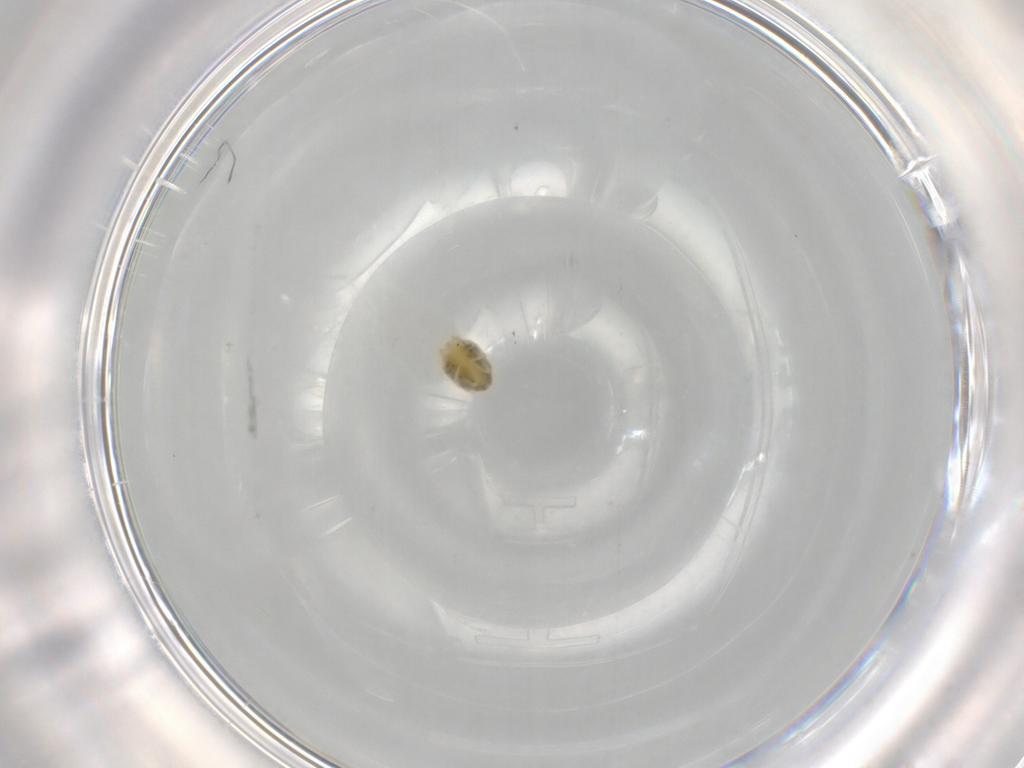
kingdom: Animalia
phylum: Arthropoda
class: Arachnida
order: Trombidiformes
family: Tetranychidae
